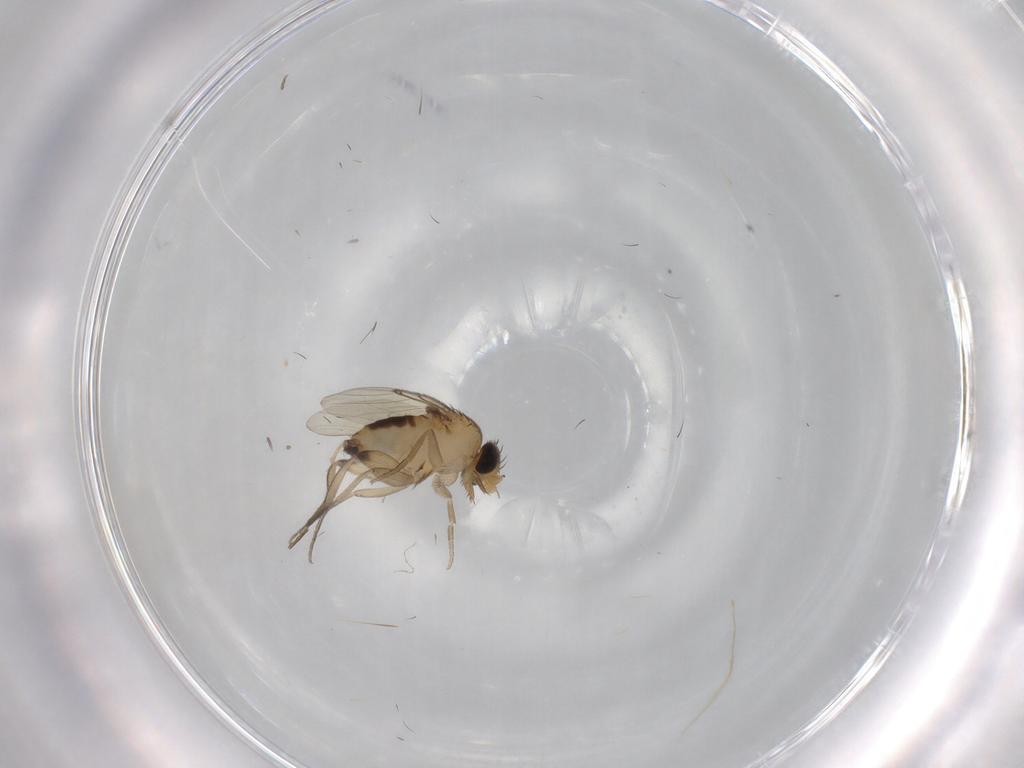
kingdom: Animalia
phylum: Arthropoda
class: Insecta
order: Diptera
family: Phoridae
